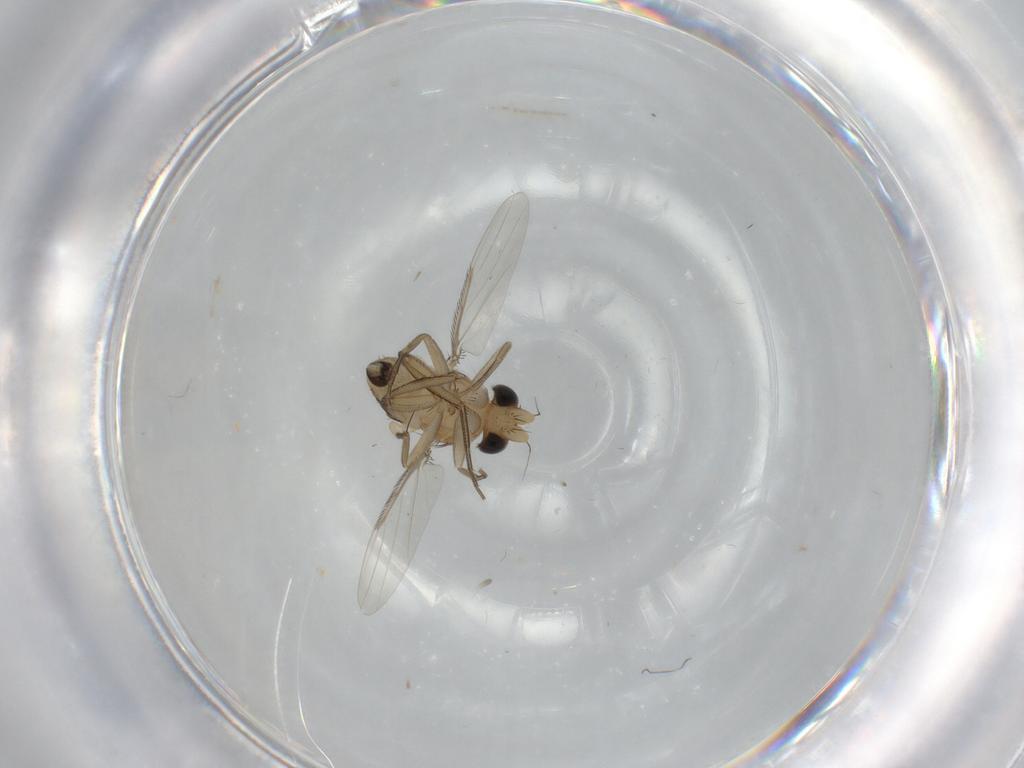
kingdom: Animalia
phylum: Arthropoda
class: Insecta
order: Diptera
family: Phoridae
